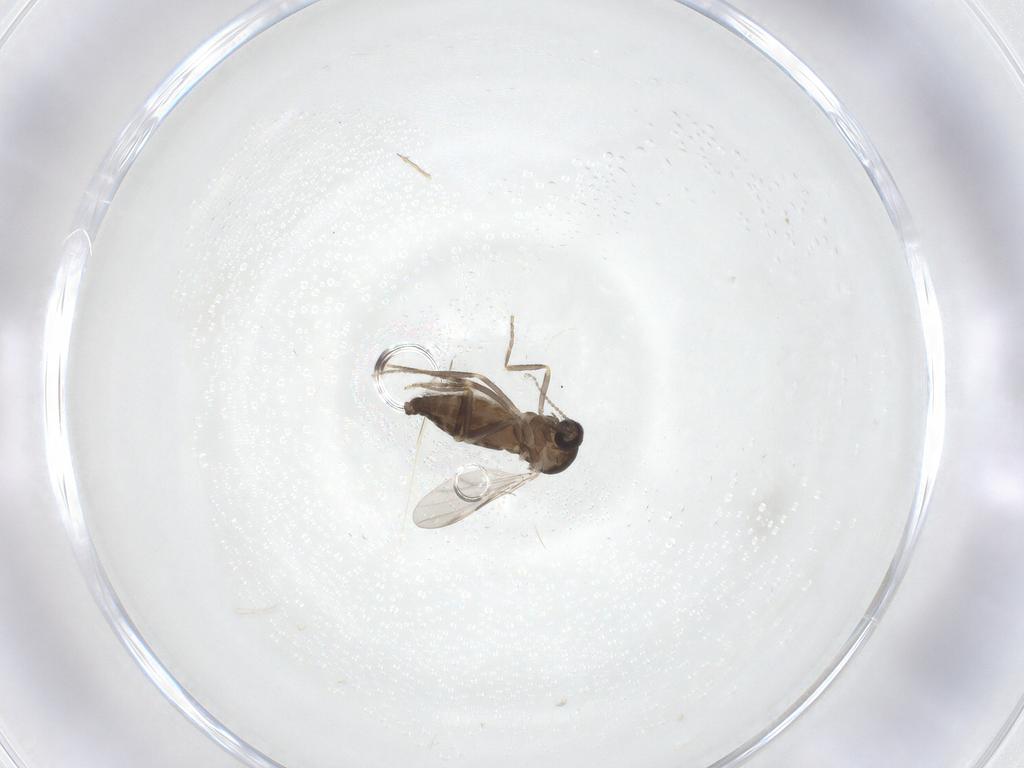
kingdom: Animalia
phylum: Arthropoda
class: Insecta
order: Diptera
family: Ceratopogonidae
